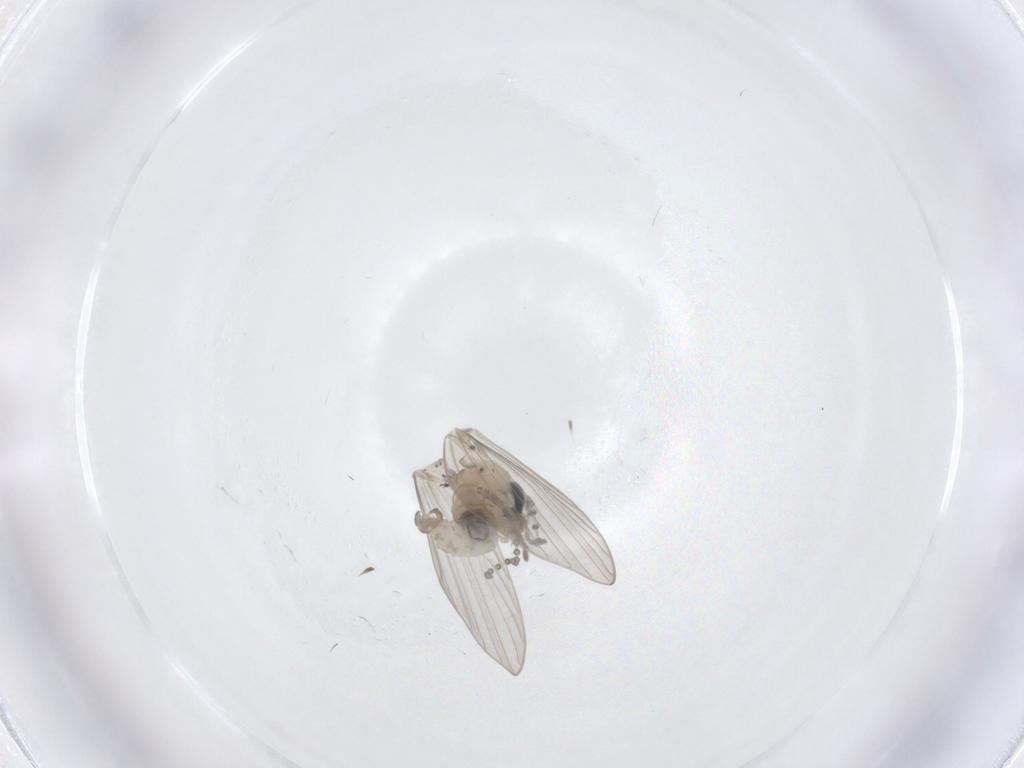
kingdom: Animalia
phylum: Arthropoda
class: Insecta
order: Diptera
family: Psychodidae
